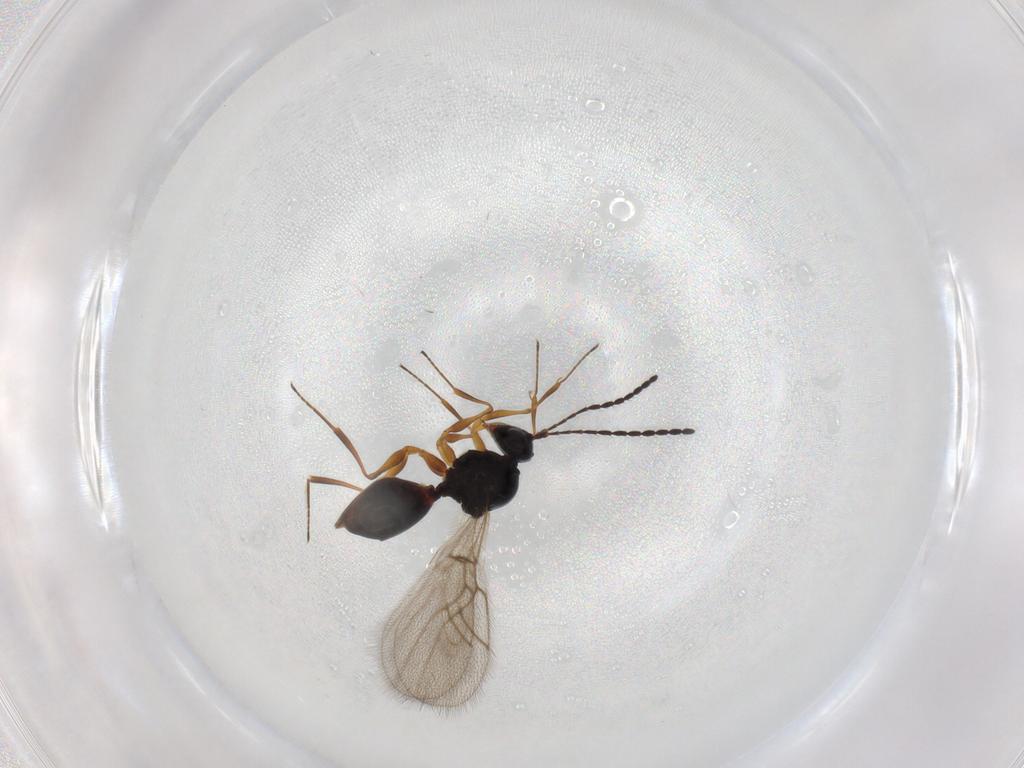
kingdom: Animalia
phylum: Arthropoda
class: Insecta
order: Hymenoptera
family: Figitidae
